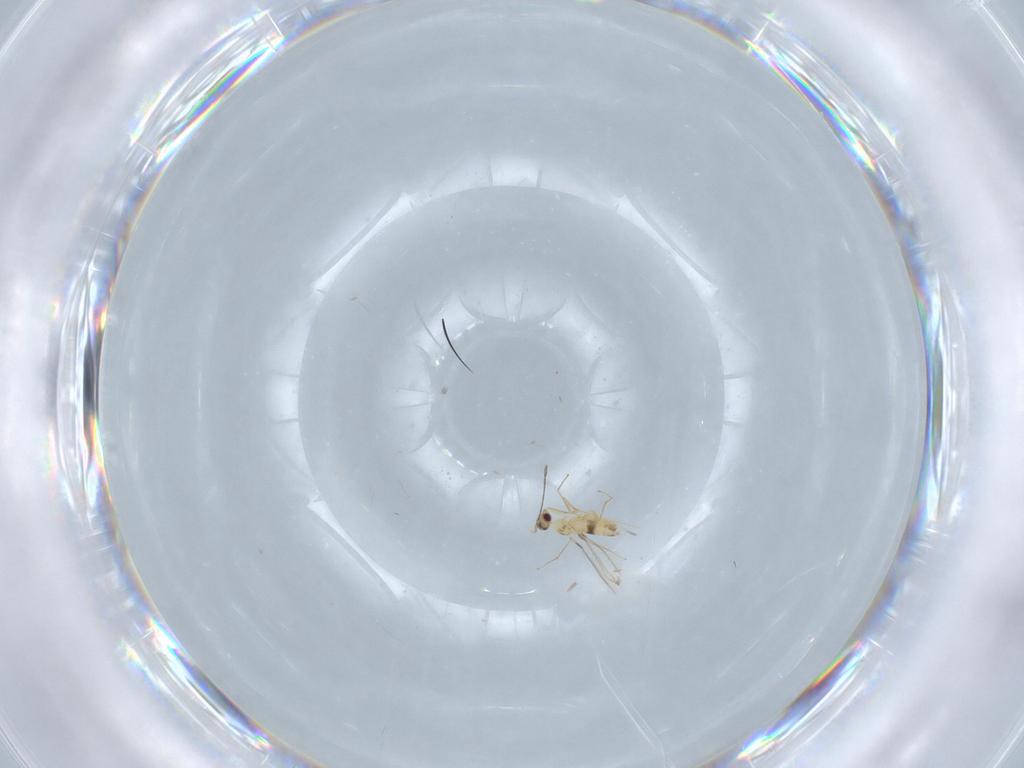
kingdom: Animalia
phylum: Arthropoda
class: Insecta
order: Hymenoptera
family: Mymaridae
